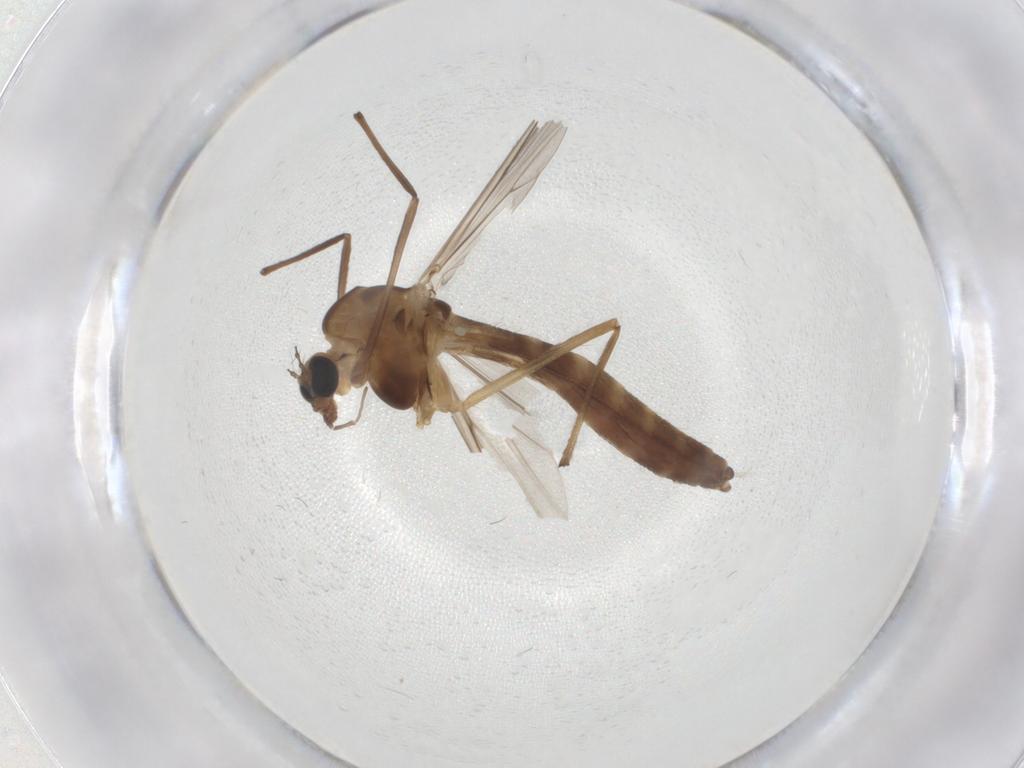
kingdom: Animalia
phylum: Arthropoda
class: Insecta
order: Diptera
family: Chironomidae
